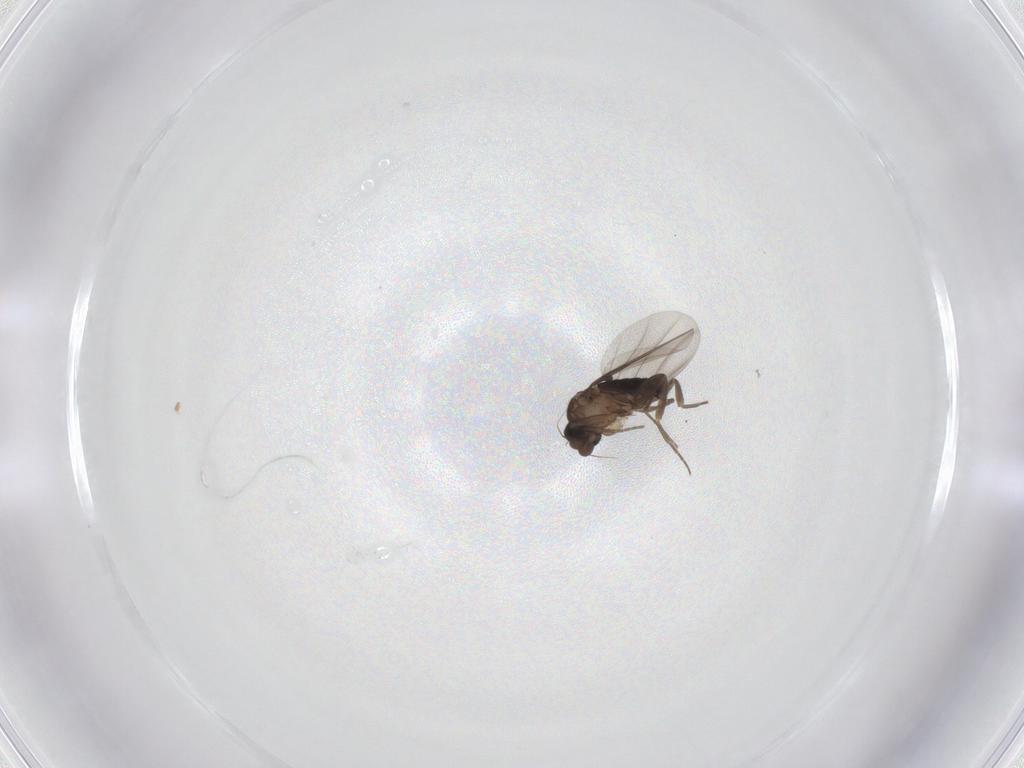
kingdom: Animalia
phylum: Arthropoda
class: Insecta
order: Diptera
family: Phoridae
